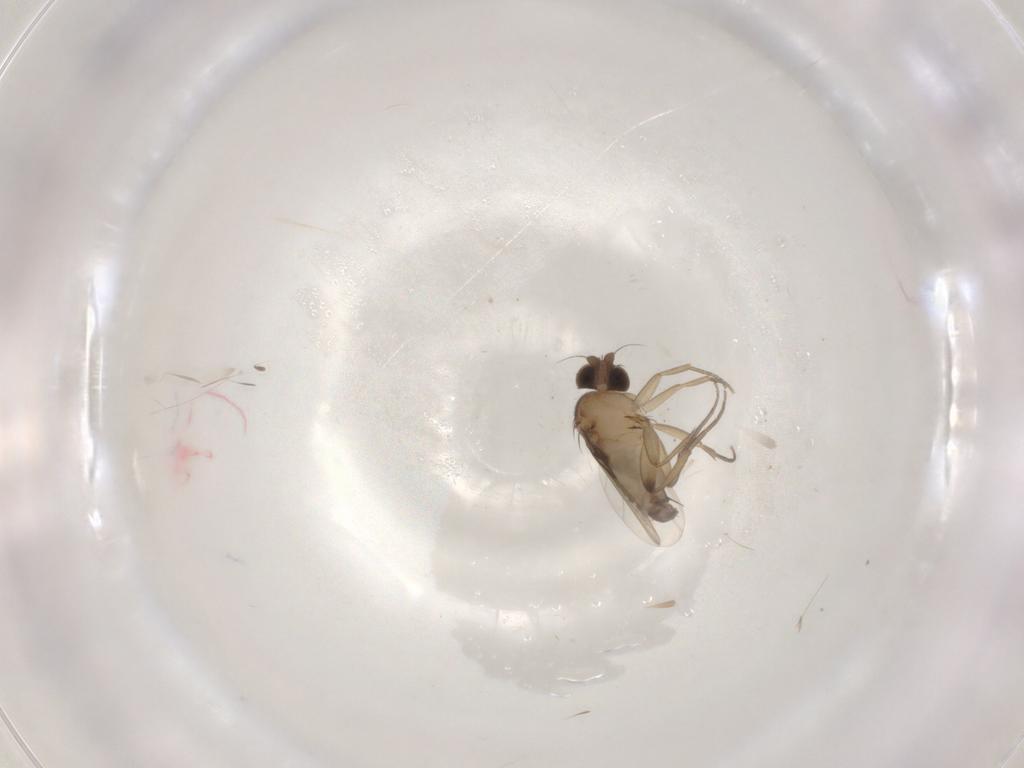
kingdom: Animalia
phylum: Arthropoda
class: Insecta
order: Diptera
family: Phoridae
